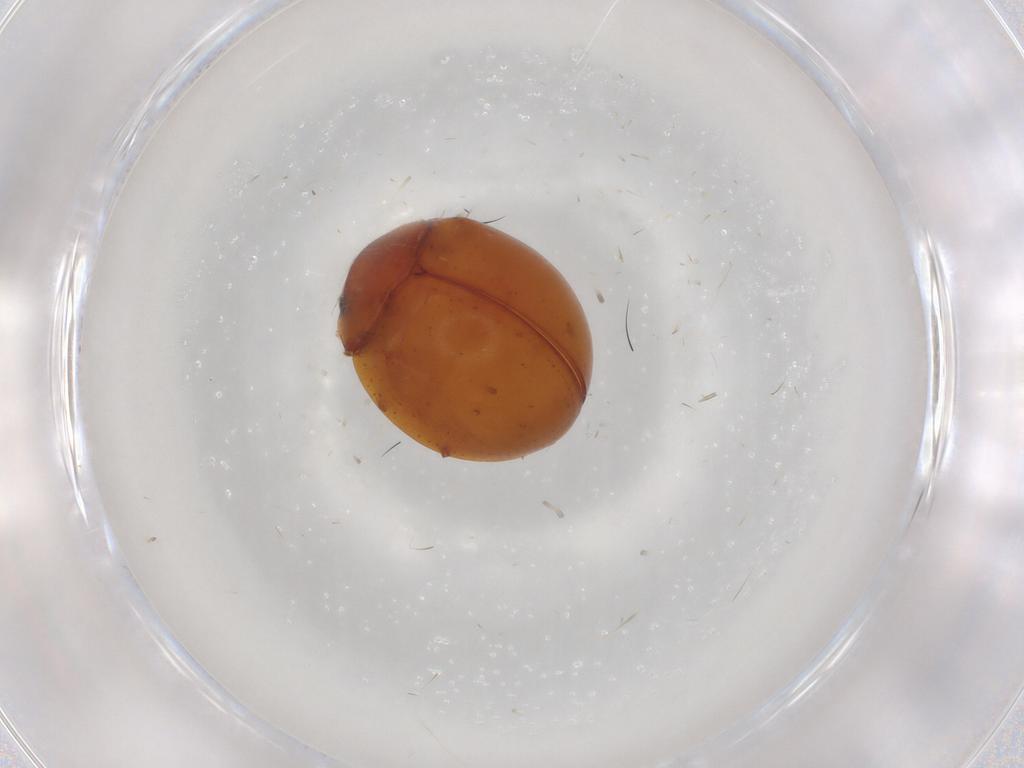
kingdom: Animalia
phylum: Arthropoda
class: Insecta
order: Coleoptera
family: Coccinellidae
